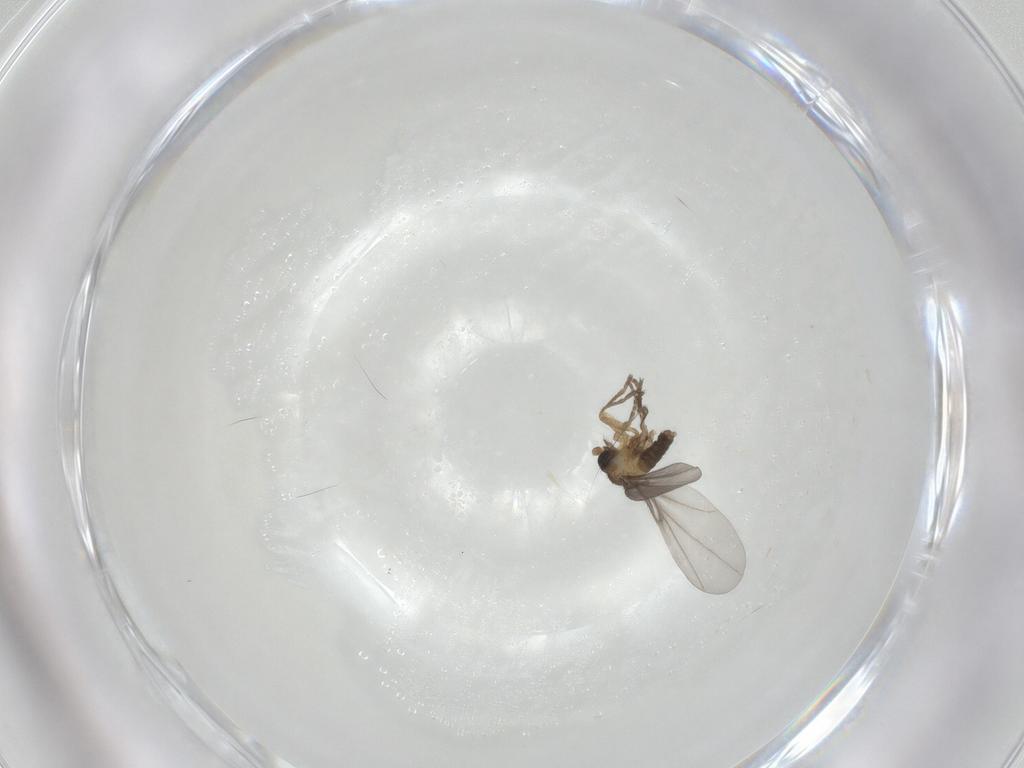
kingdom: Animalia
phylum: Arthropoda
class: Insecta
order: Diptera
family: Phoridae
